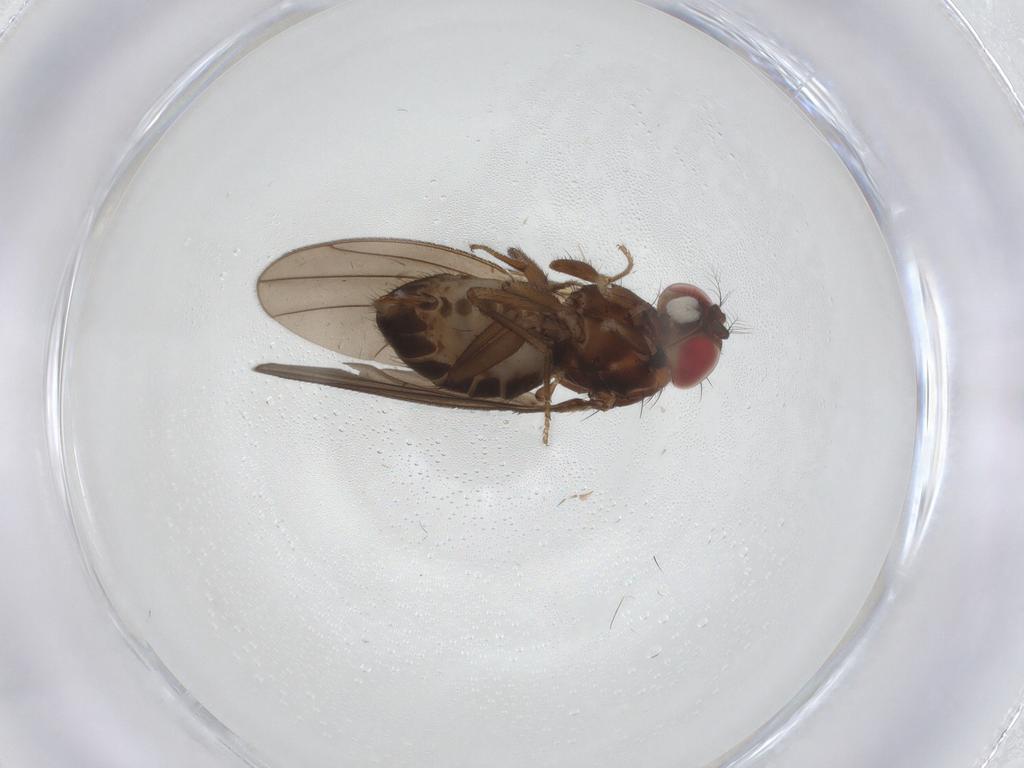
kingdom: Animalia
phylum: Arthropoda
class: Insecta
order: Diptera
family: Drosophilidae
